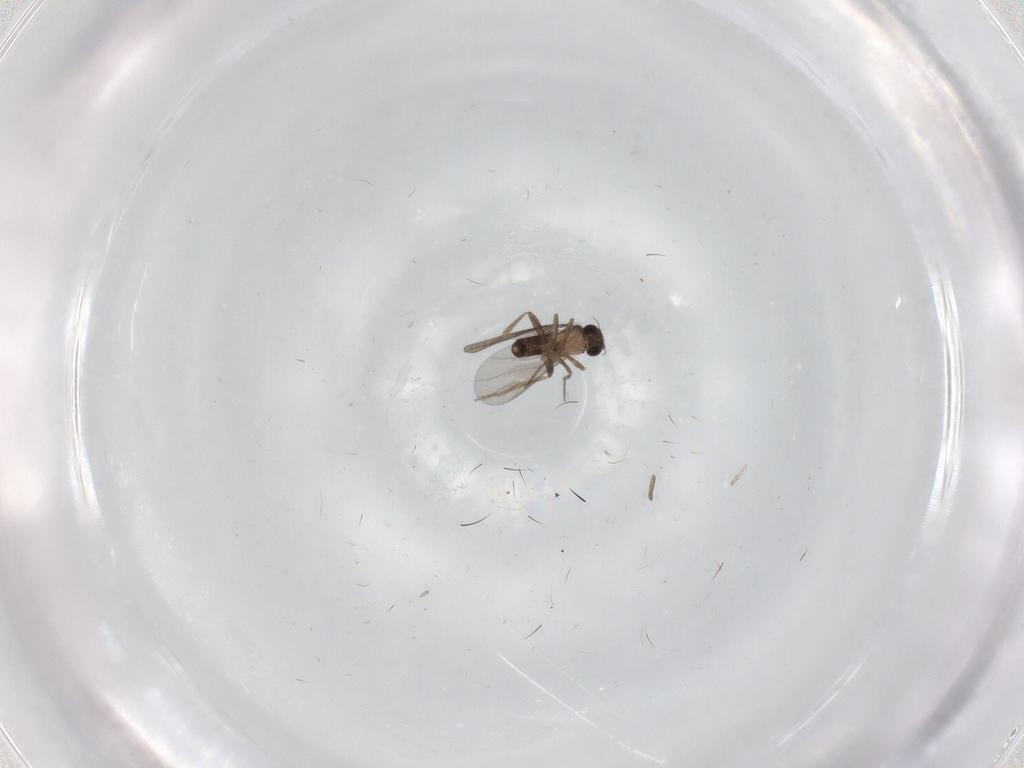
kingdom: Animalia
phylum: Arthropoda
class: Insecta
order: Diptera
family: Cecidomyiidae
